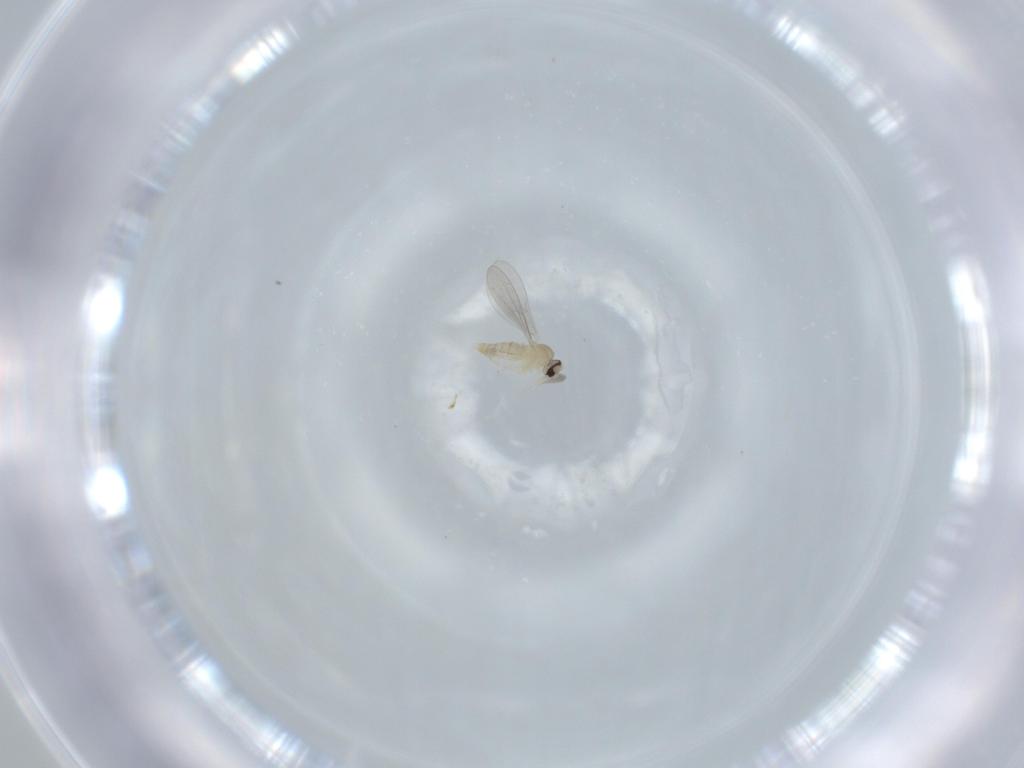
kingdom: Animalia
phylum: Arthropoda
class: Insecta
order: Diptera
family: Cecidomyiidae
